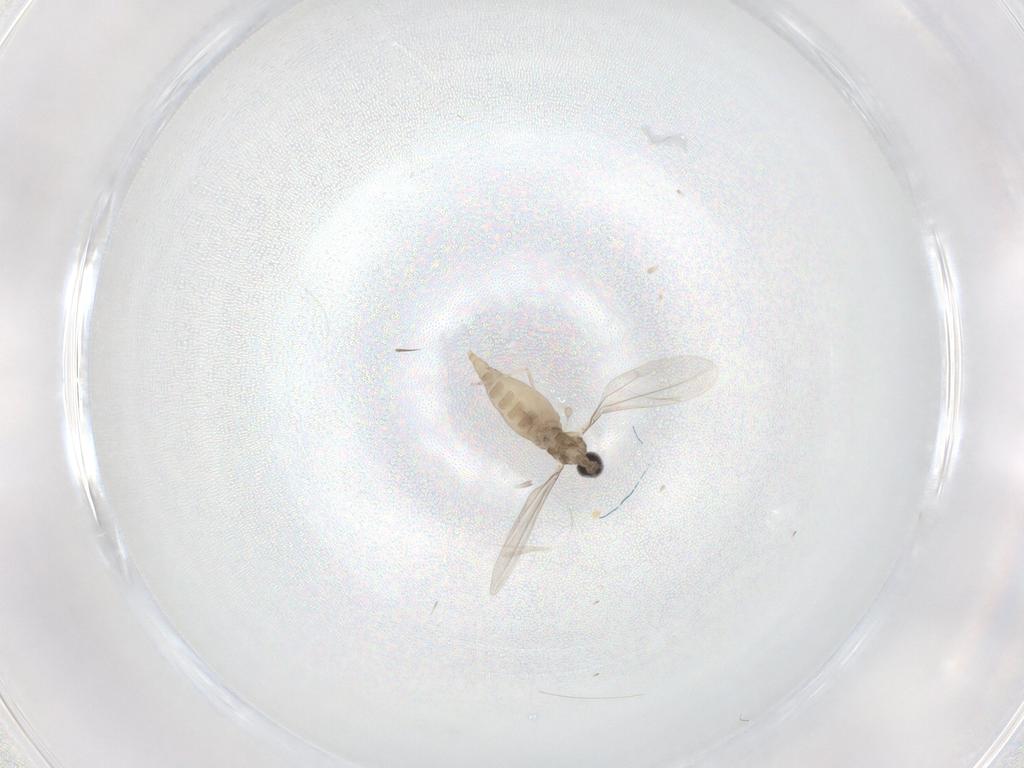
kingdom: Animalia
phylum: Arthropoda
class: Insecta
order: Diptera
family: Cecidomyiidae
